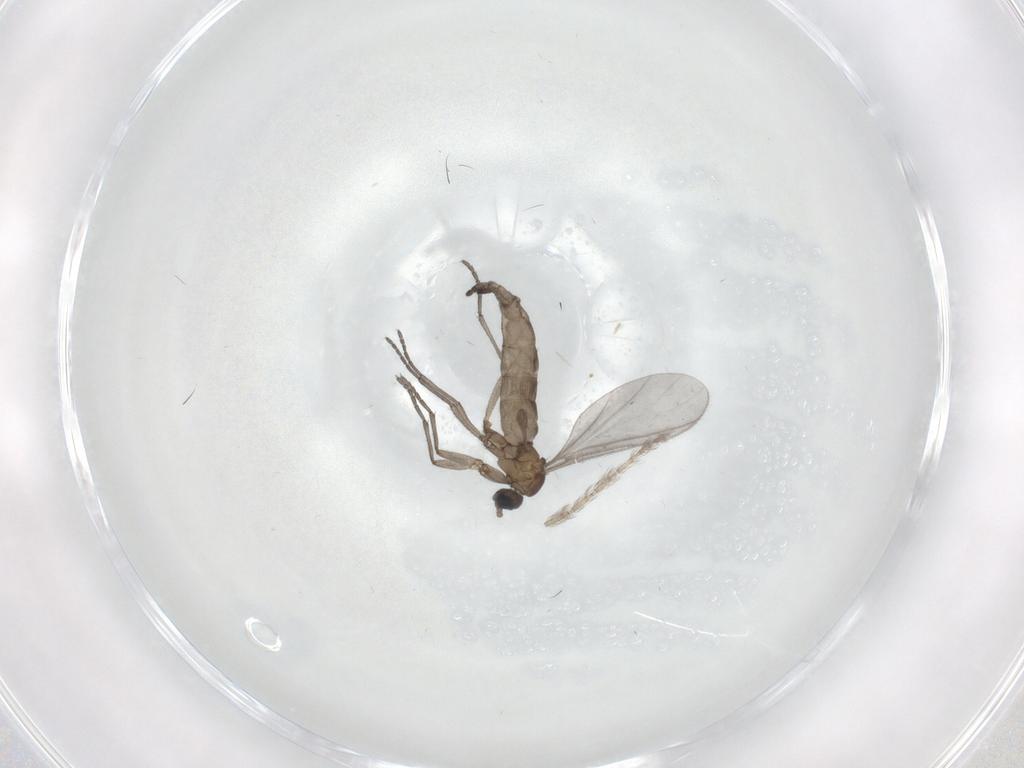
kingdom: Animalia
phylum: Arthropoda
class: Insecta
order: Diptera
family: Sciaridae
